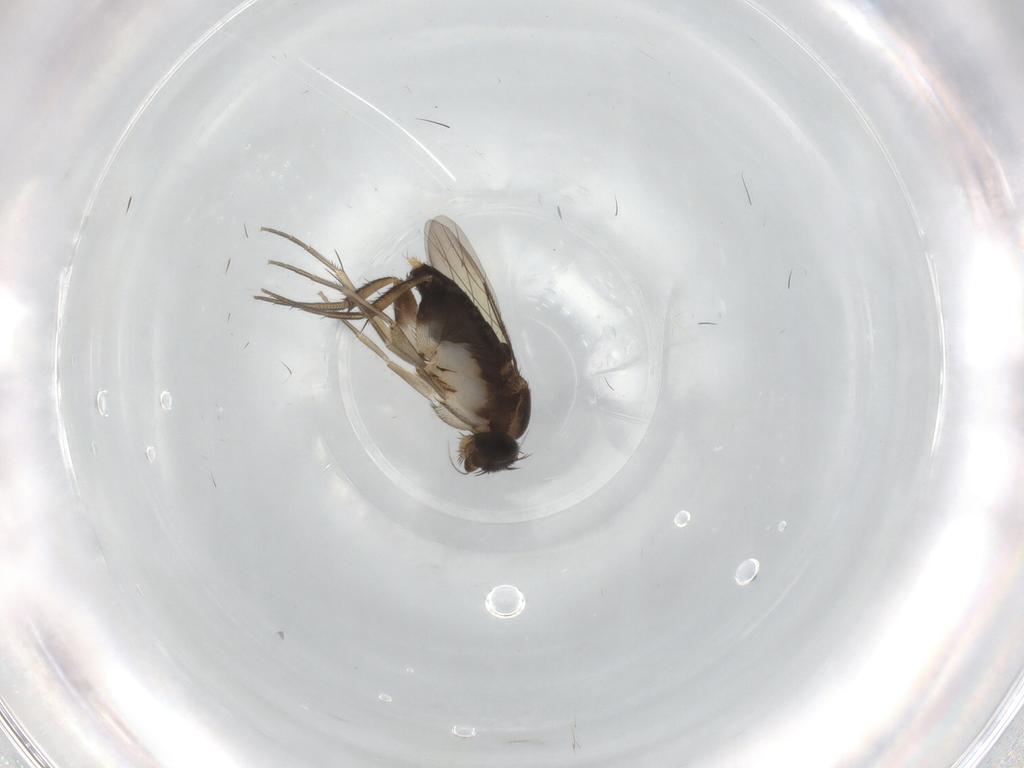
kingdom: Animalia
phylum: Arthropoda
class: Insecta
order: Diptera
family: Phoridae
